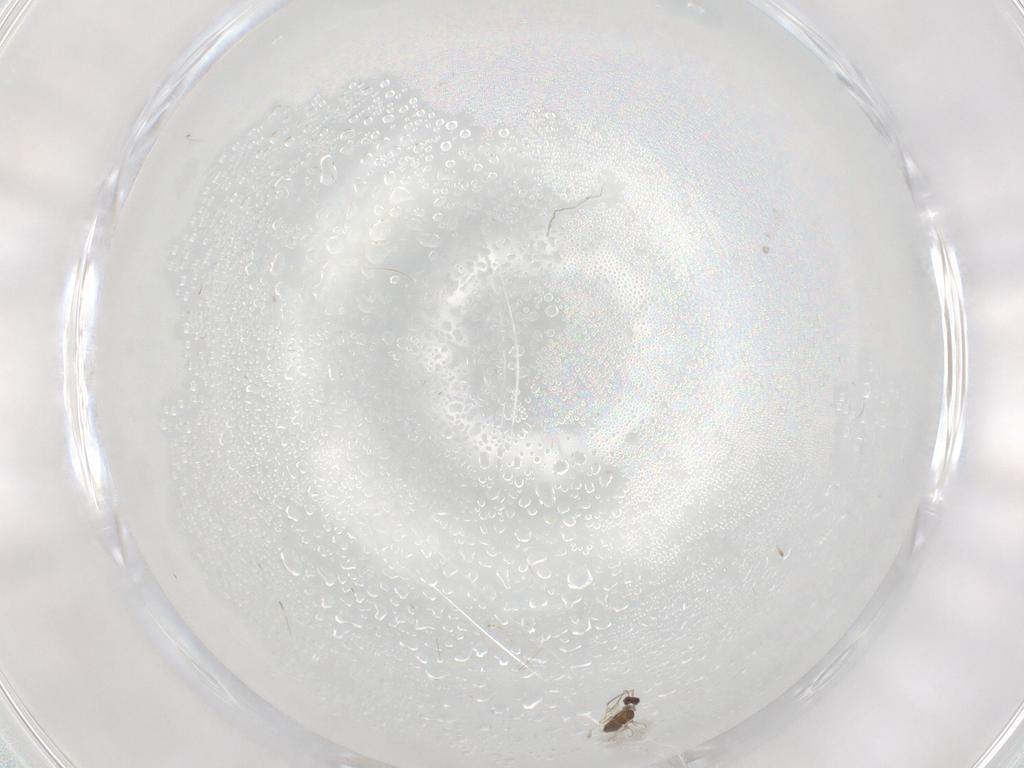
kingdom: Animalia
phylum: Arthropoda
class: Insecta
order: Hymenoptera
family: Mymaridae
